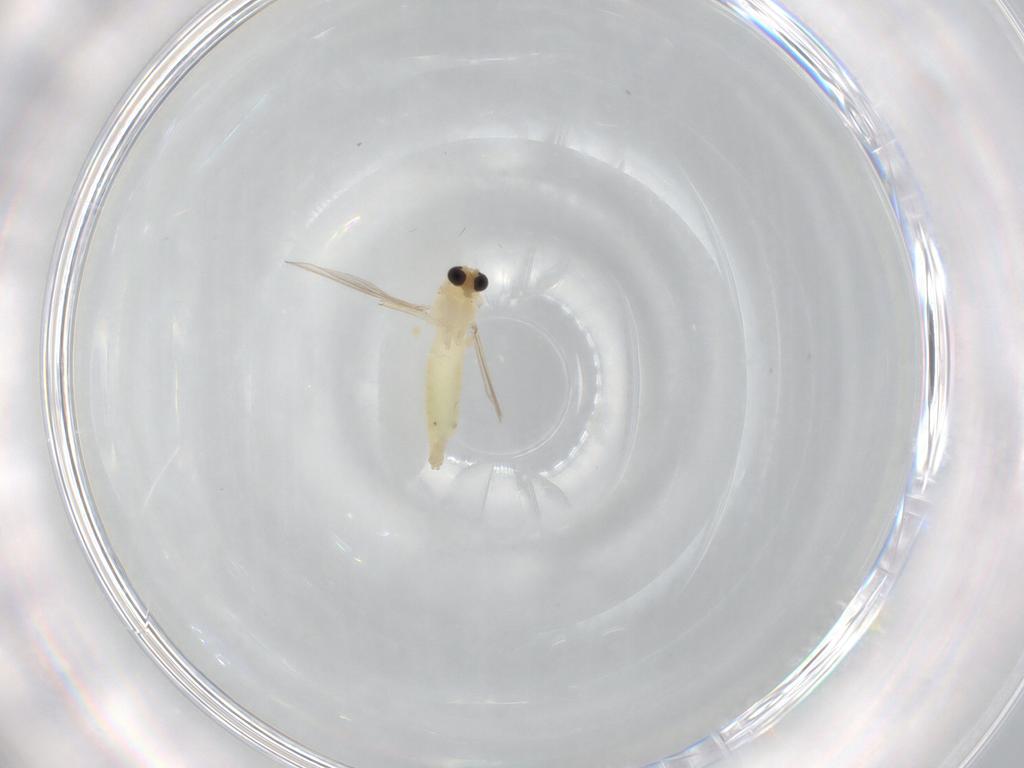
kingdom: Animalia
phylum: Arthropoda
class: Insecta
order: Diptera
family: Chironomidae
